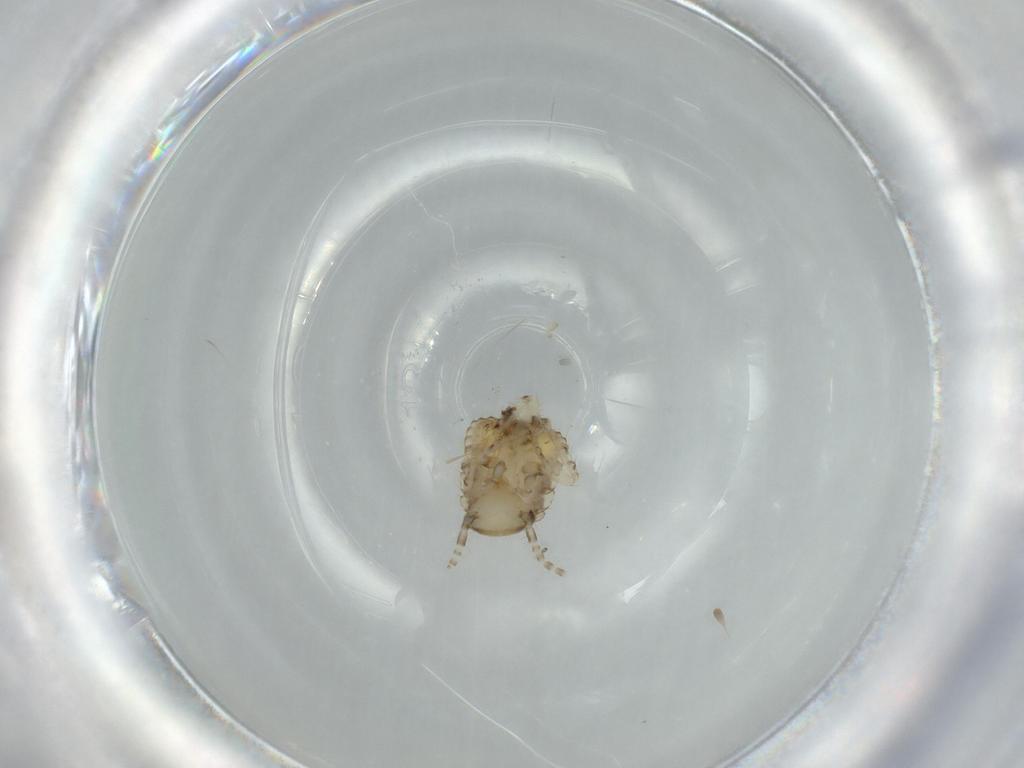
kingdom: Animalia
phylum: Arthropoda
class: Insecta
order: Blattodea
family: Ectobiidae
